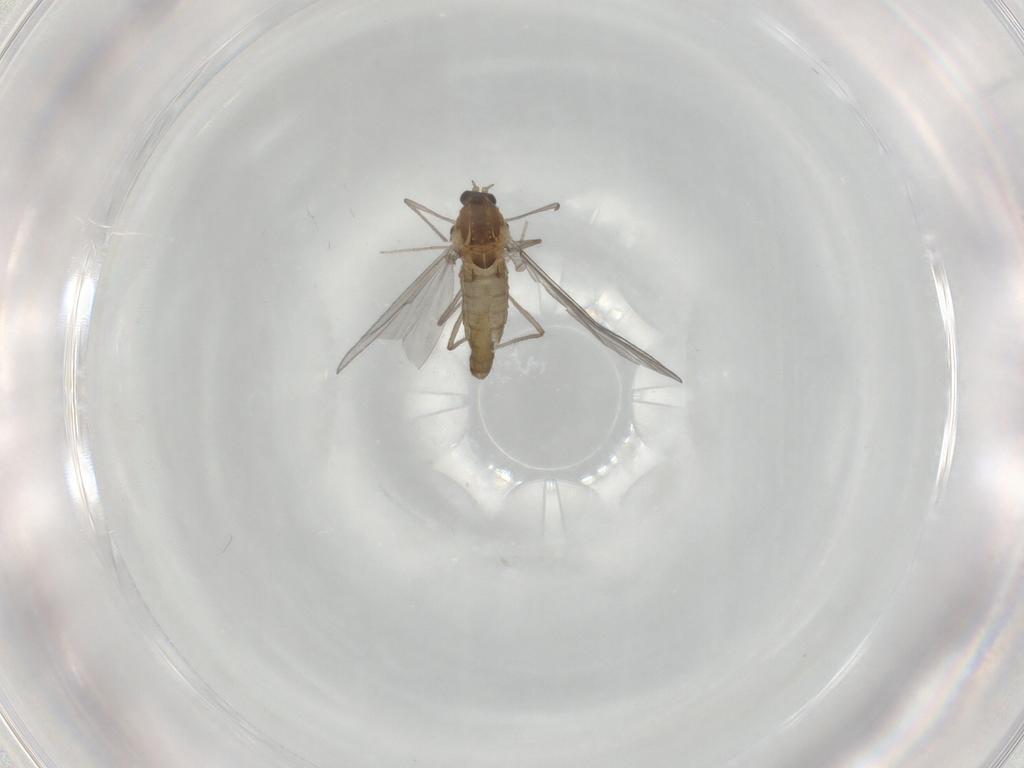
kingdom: Animalia
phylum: Arthropoda
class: Insecta
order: Diptera
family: Chironomidae
